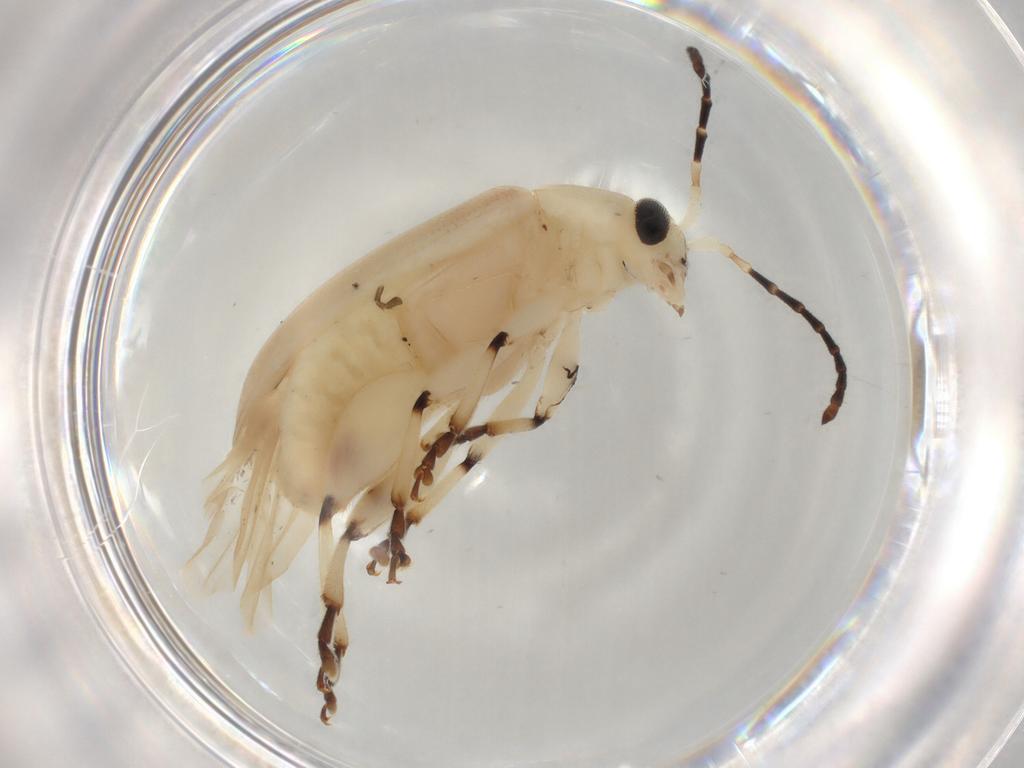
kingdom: Animalia
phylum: Arthropoda
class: Insecta
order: Coleoptera
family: Chrysomelidae
